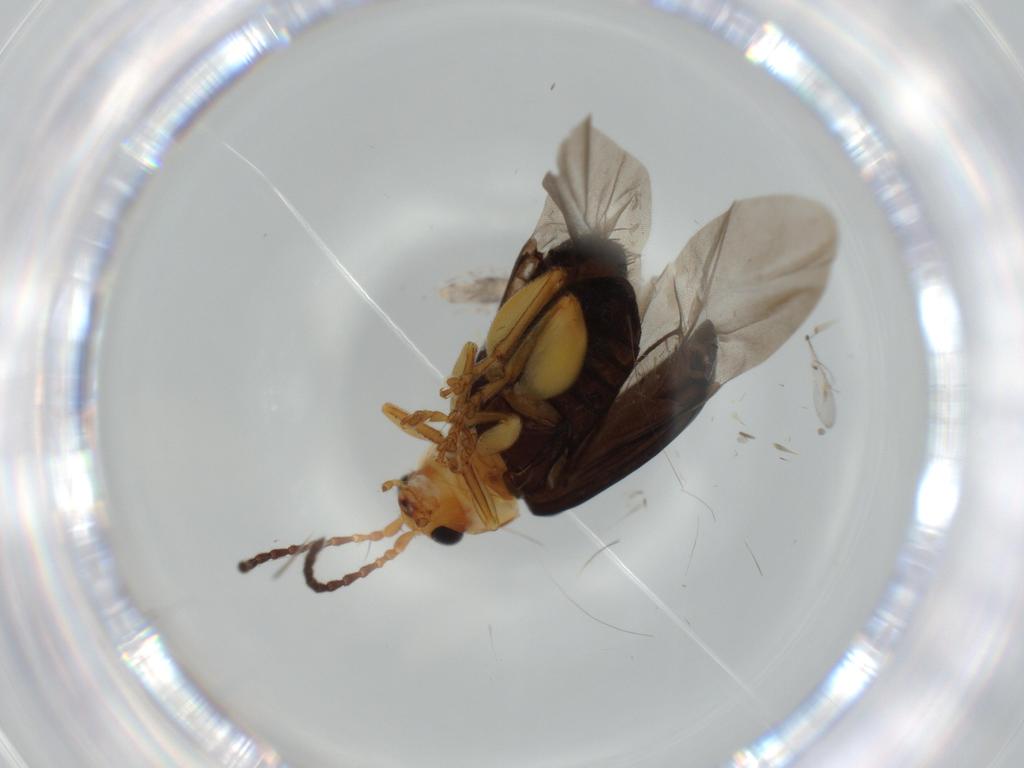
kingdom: Animalia
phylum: Arthropoda
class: Insecta
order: Coleoptera
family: Chrysomelidae
